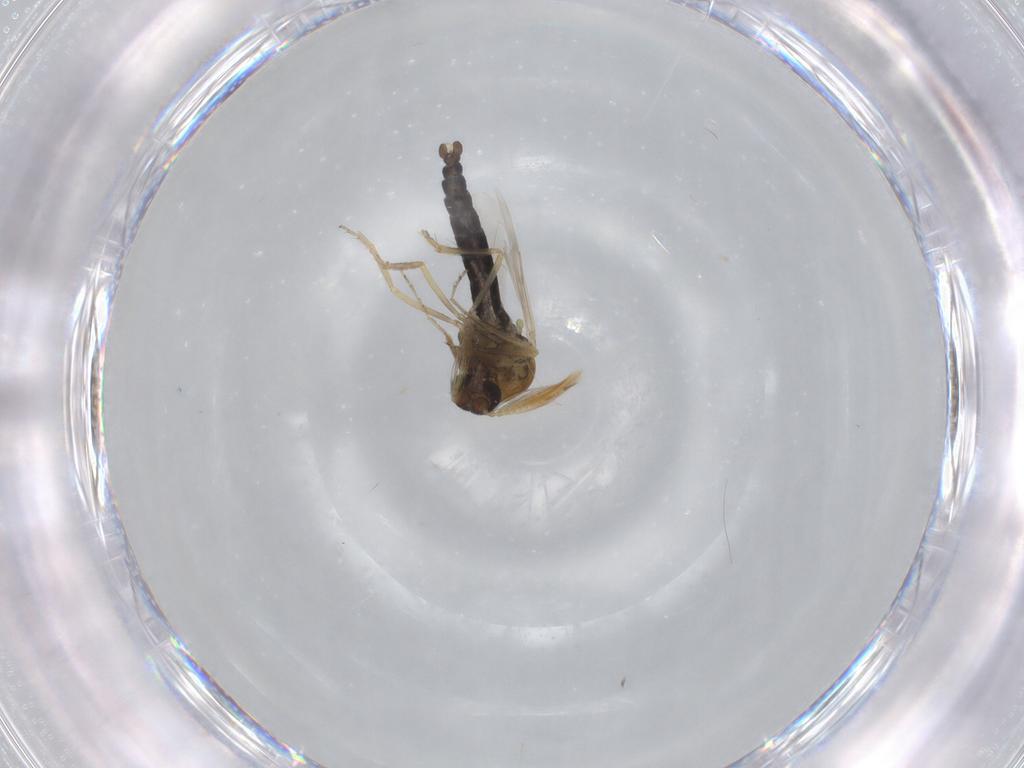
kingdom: Animalia
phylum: Arthropoda
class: Insecta
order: Diptera
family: Ceratopogonidae
